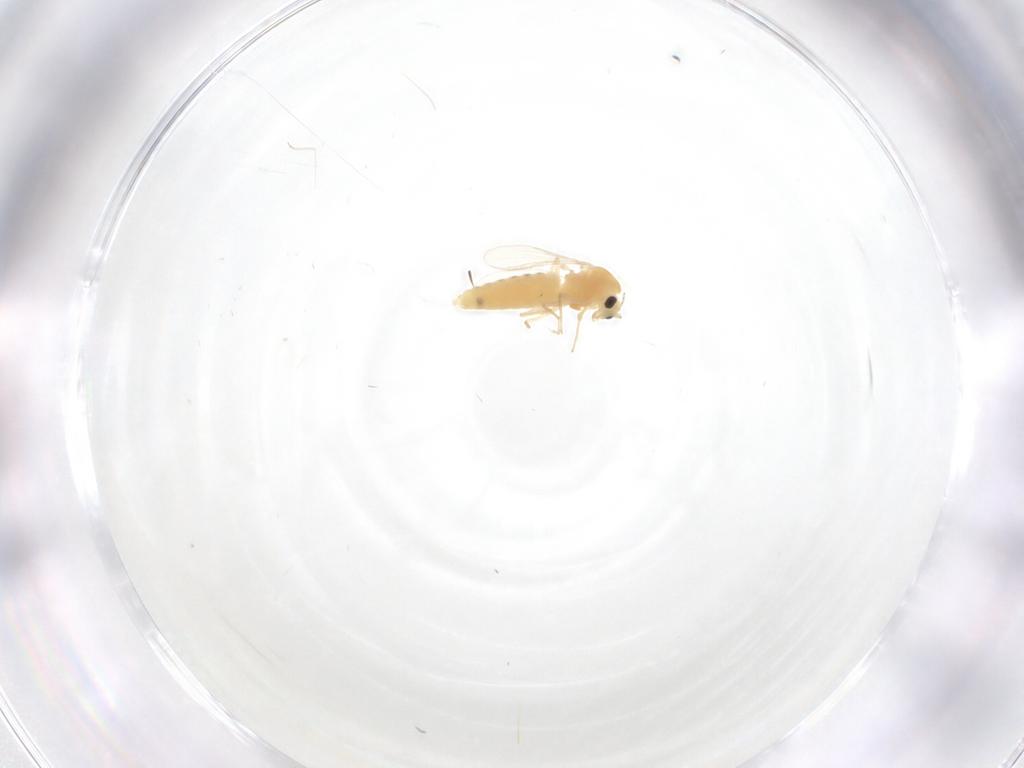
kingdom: Animalia
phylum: Arthropoda
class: Insecta
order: Diptera
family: Chironomidae
